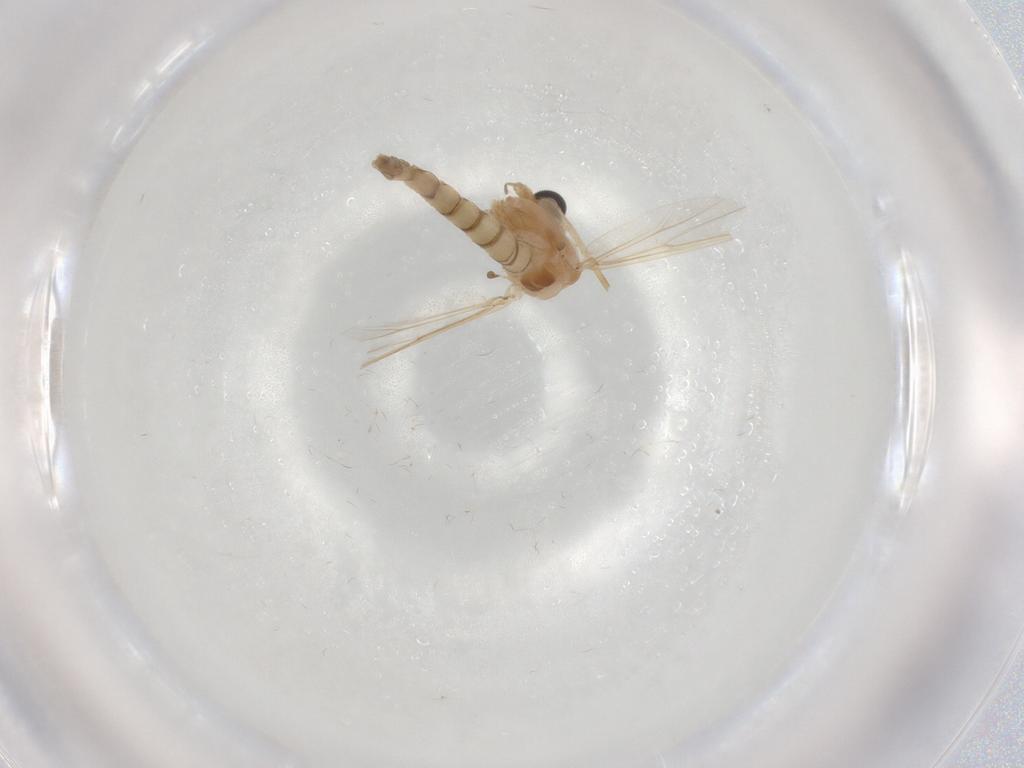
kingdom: Animalia
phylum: Arthropoda
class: Insecta
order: Diptera
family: Chironomidae
